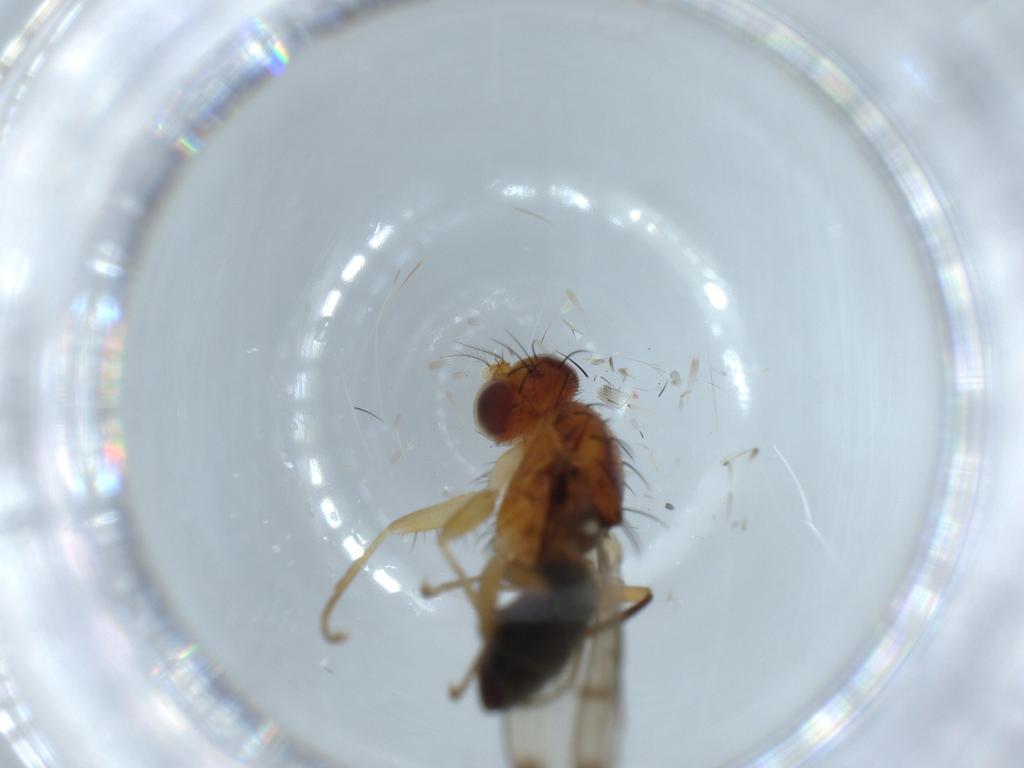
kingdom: Animalia
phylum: Arthropoda
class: Insecta
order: Diptera
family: Opomyzidae
